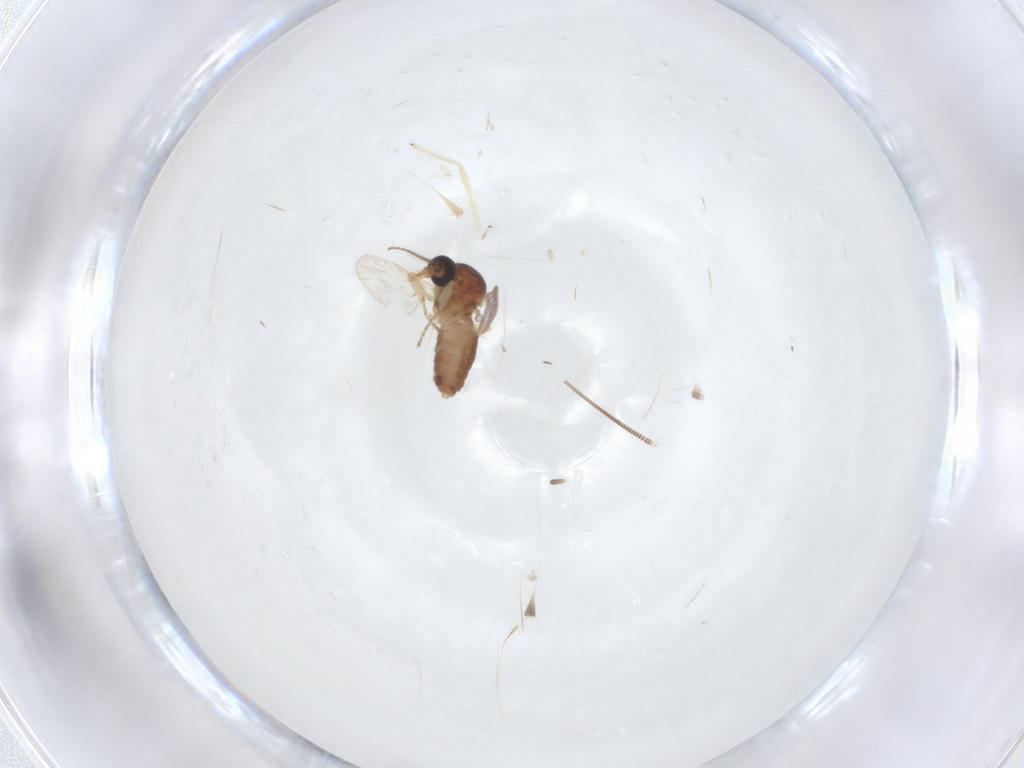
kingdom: Animalia
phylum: Arthropoda
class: Insecta
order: Diptera
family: Ceratopogonidae
